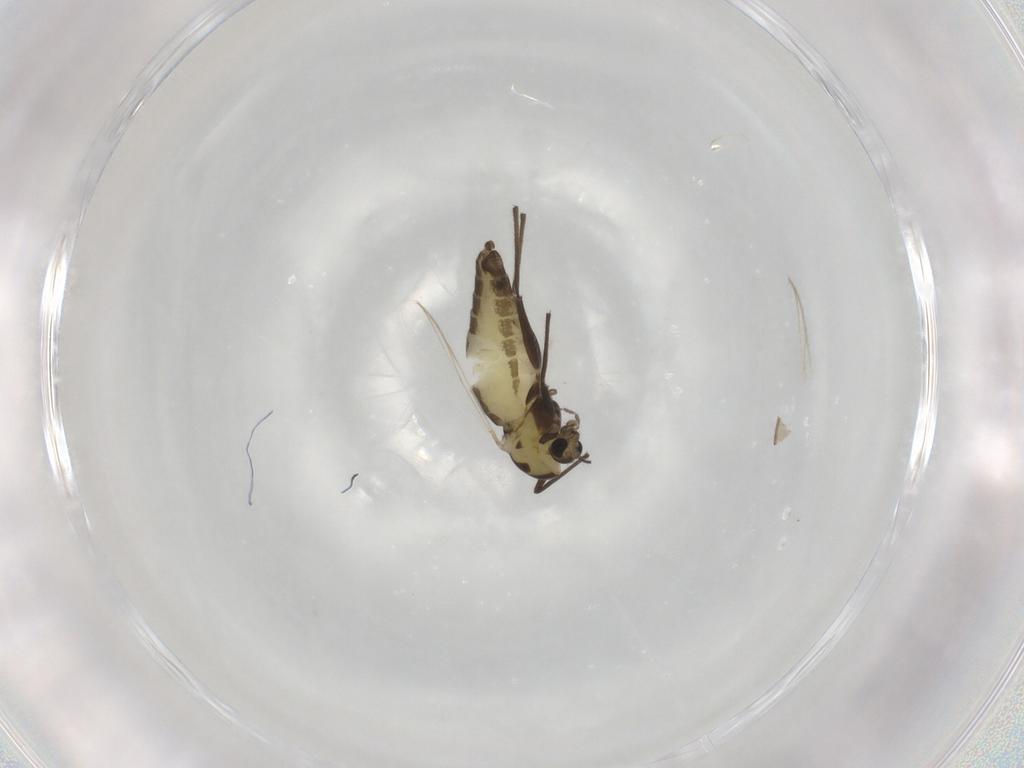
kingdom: Animalia
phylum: Arthropoda
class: Insecta
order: Diptera
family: Chironomidae
